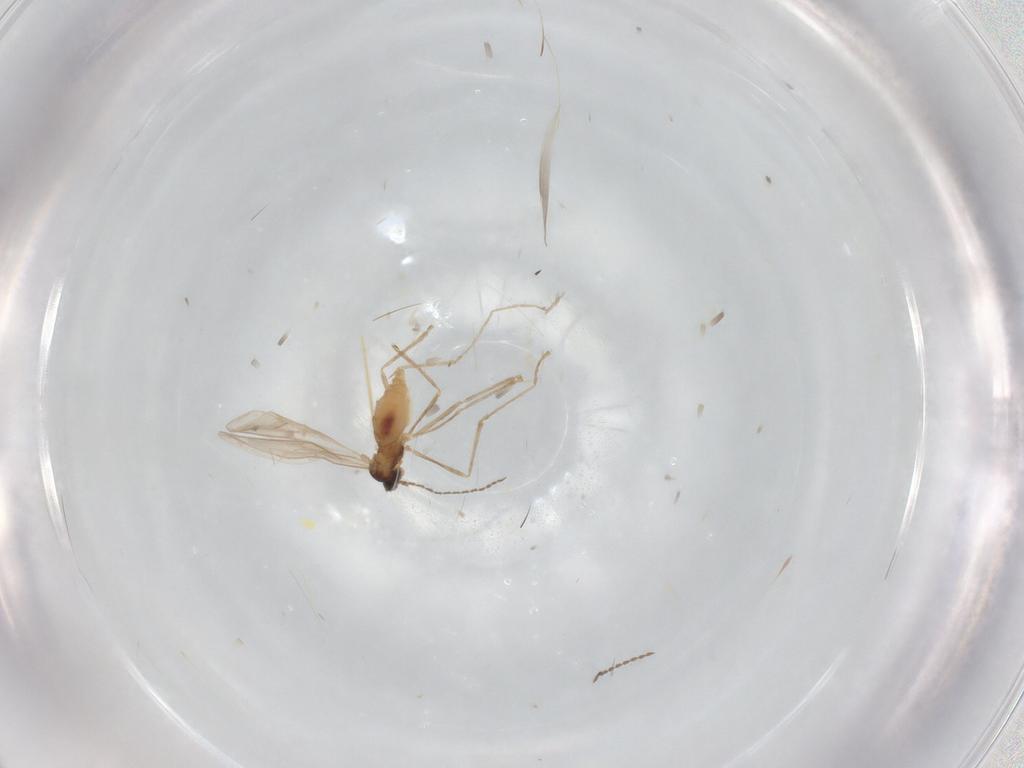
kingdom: Animalia
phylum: Arthropoda
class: Insecta
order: Diptera
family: Cecidomyiidae
